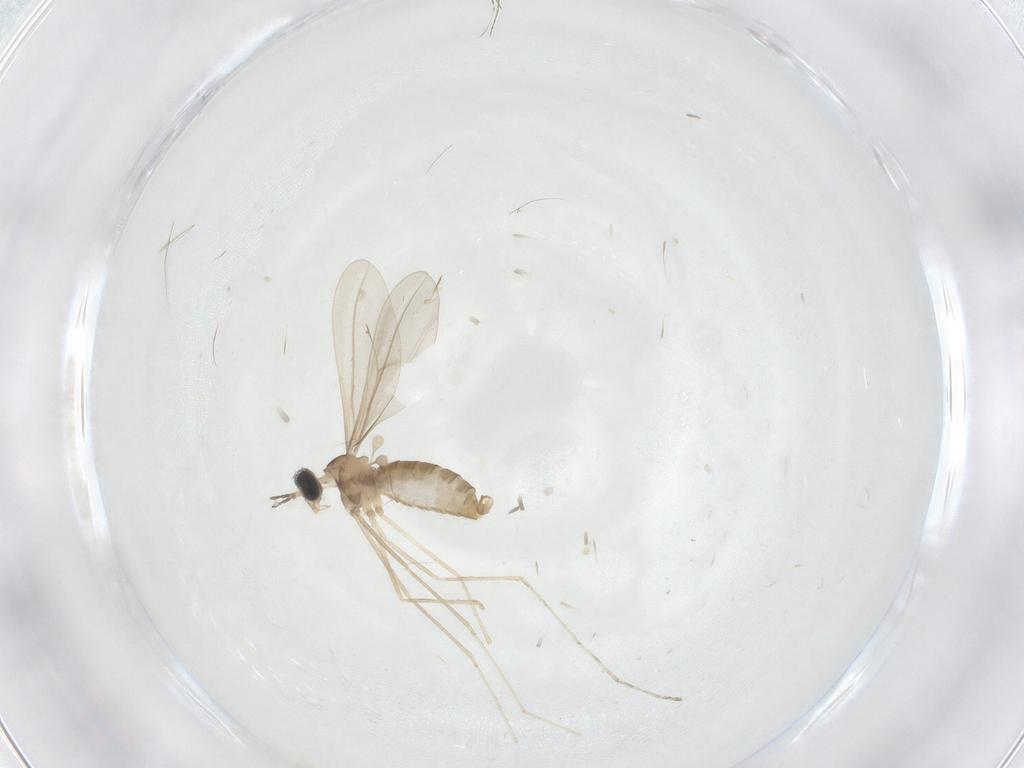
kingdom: Animalia
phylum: Arthropoda
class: Insecta
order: Diptera
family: Cecidomyiidae
